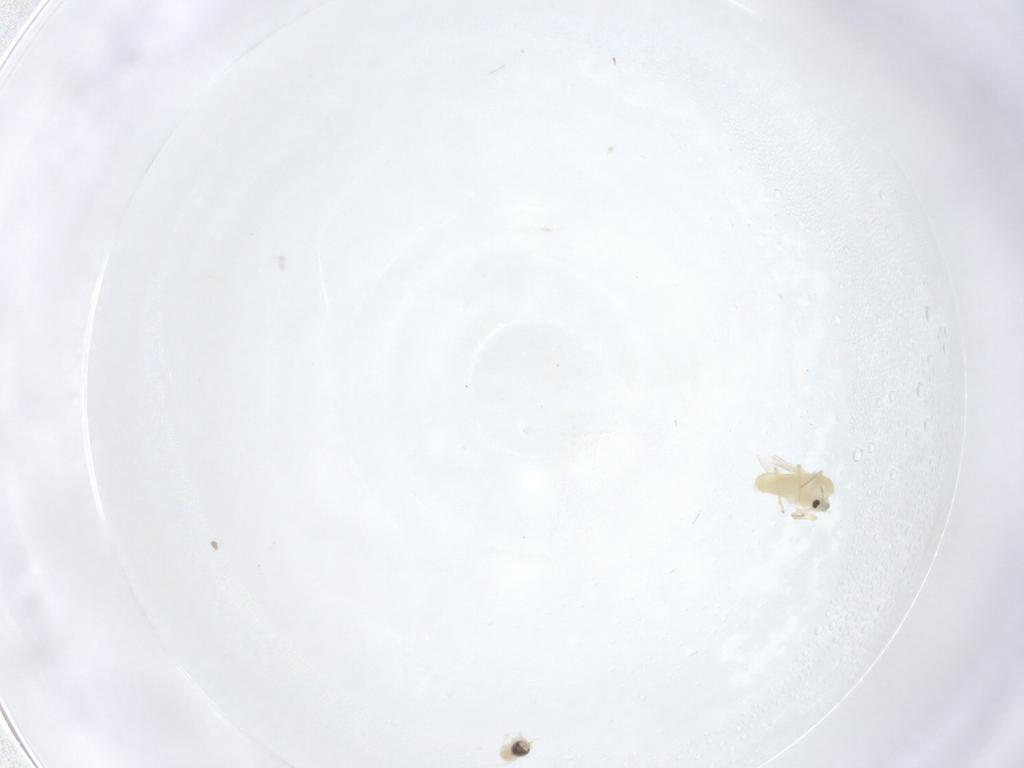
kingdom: Animalia
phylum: Arthropoda
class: Insecta
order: Diptera
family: Chironomidae
